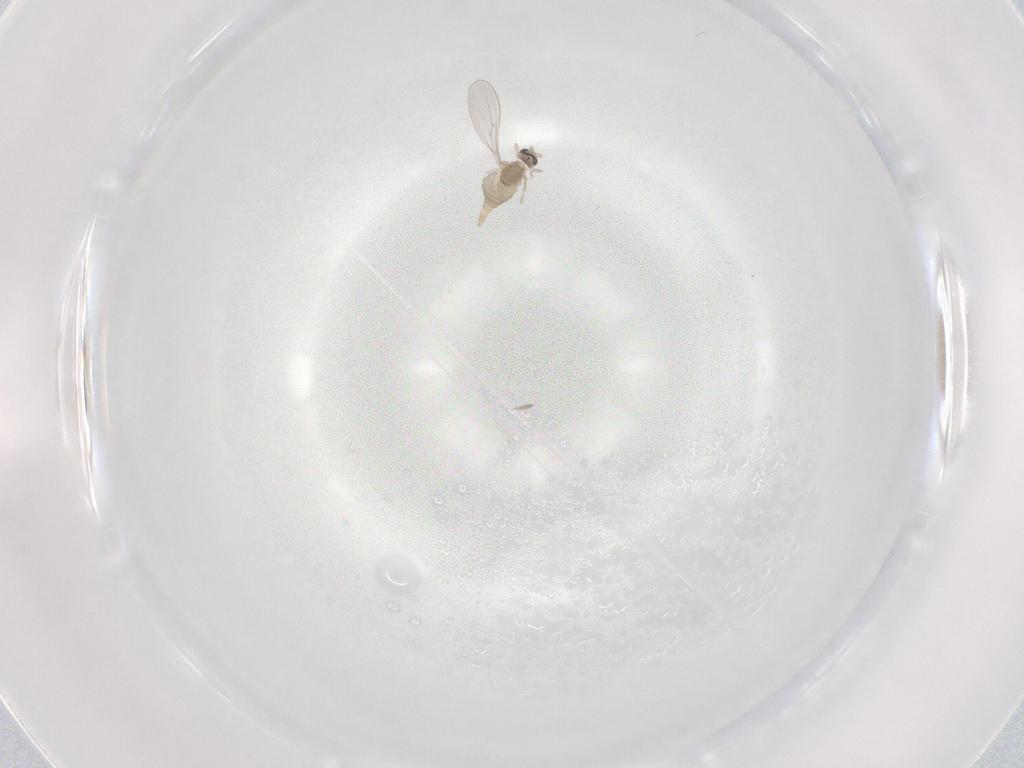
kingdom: Animalia
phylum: Arthropoda
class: Insecta
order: Diptera
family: Cecidomyiidae
